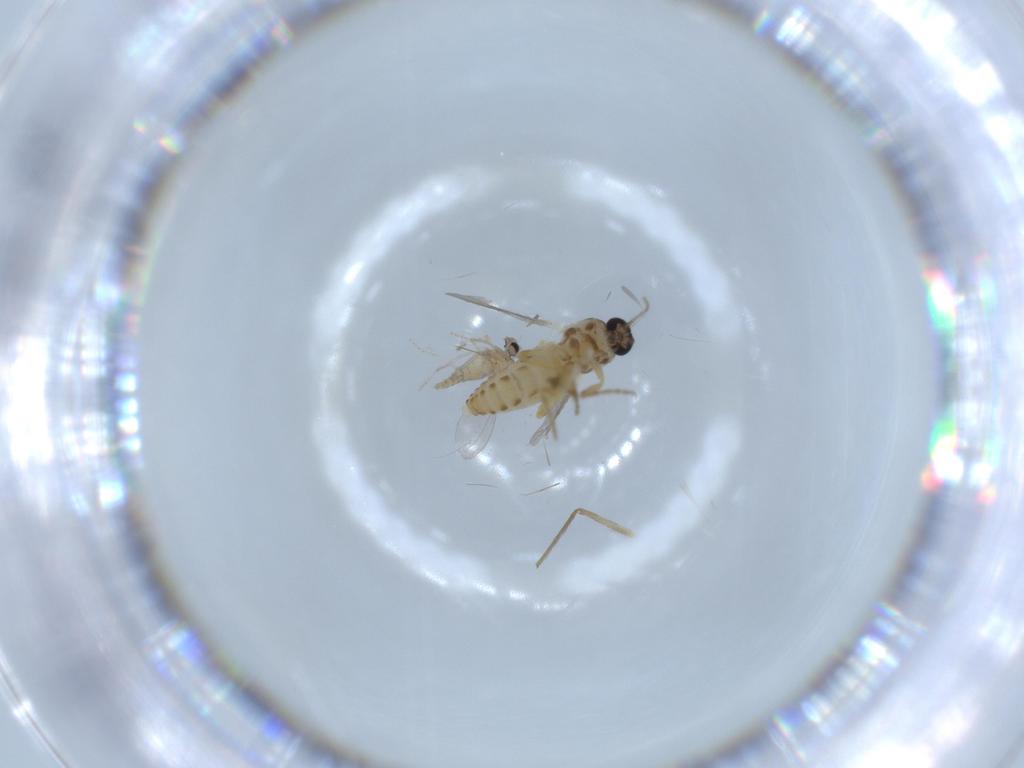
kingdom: Animalia
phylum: Arthropoda
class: Insecta
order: Diptera
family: Ceratopogonidae
